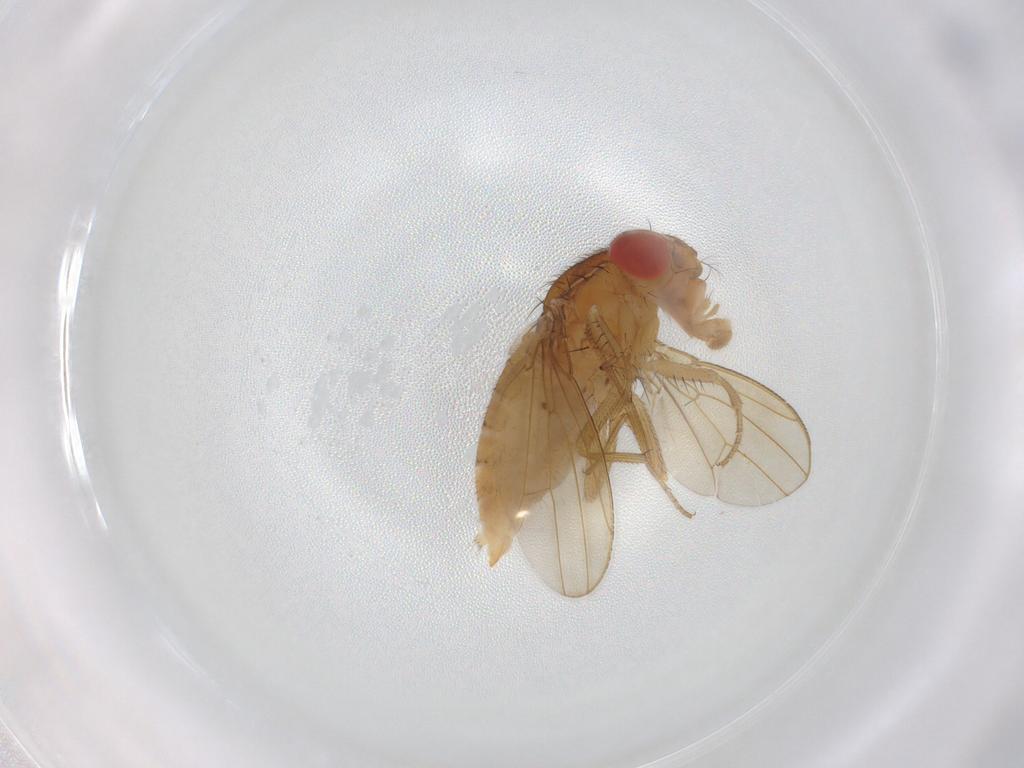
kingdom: Animalia
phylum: Arthropoda
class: Insecta
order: Diptera
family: Drosophilidae
